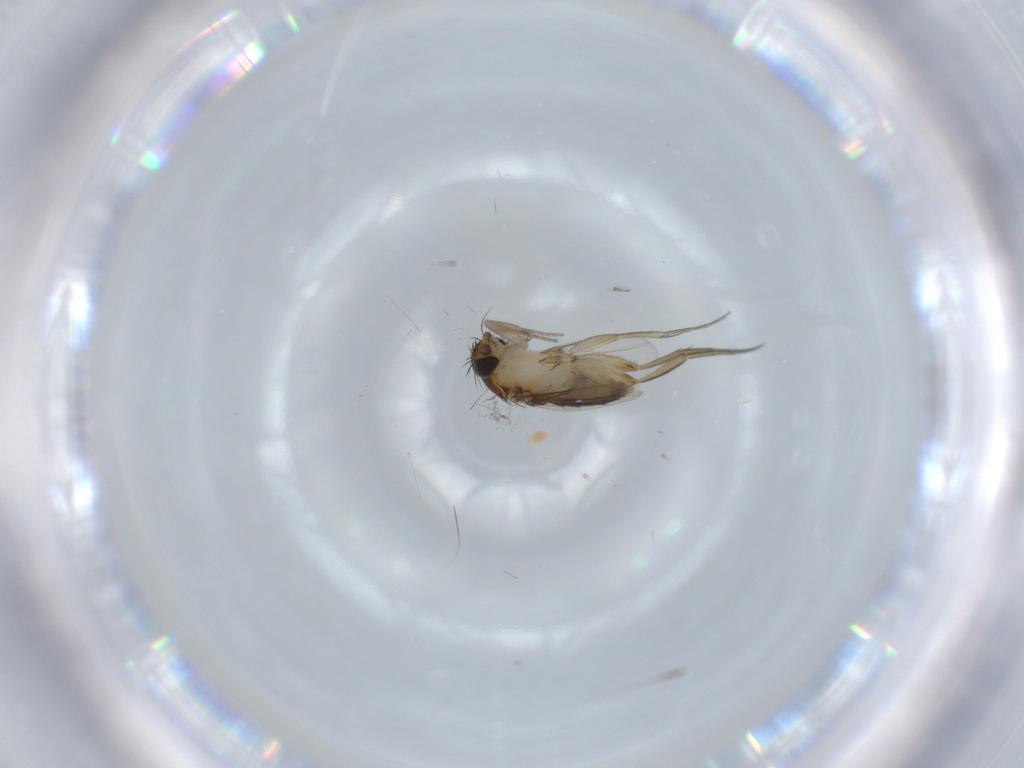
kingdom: Animalia
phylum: Arthropoda
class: Insecta
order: Diptera
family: Phoridae
